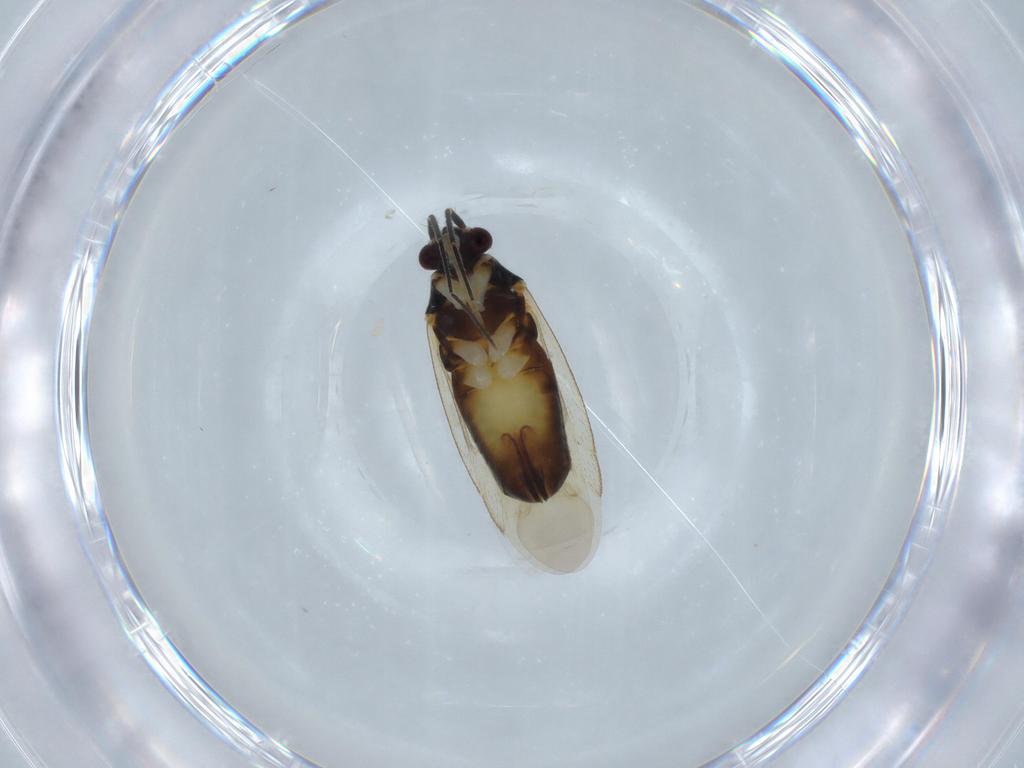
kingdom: Animalia
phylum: Arthropoda
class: Insecta
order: Hemiptera
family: Miridae
